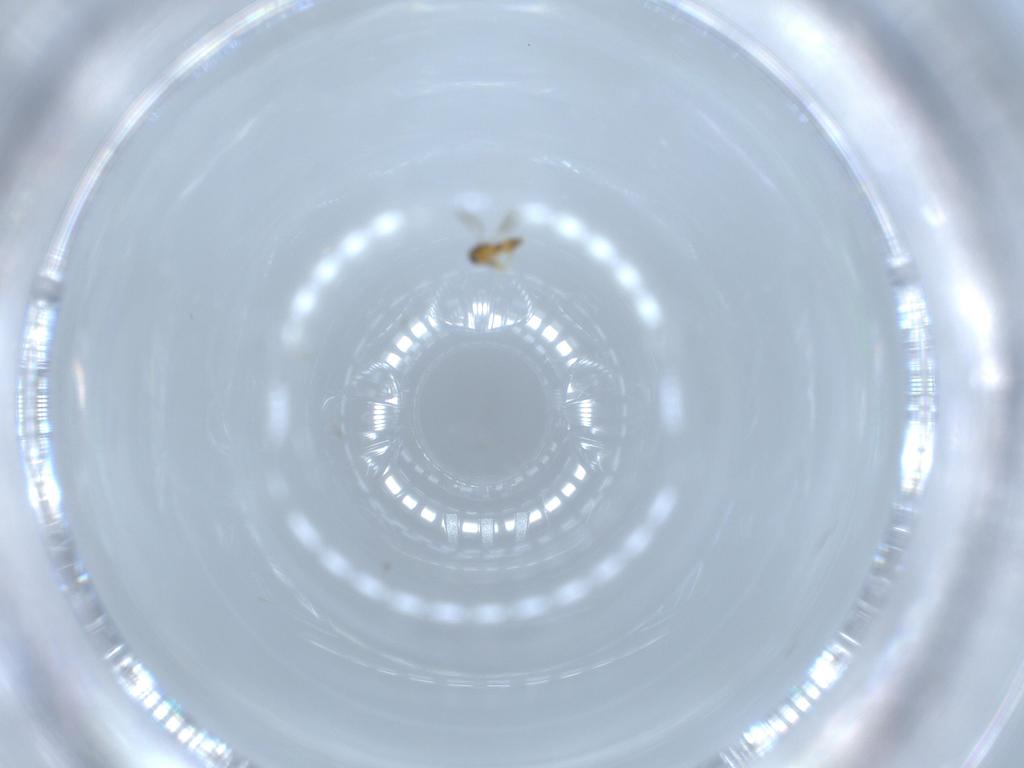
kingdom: Animalia
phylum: Arthropoda
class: Insecta
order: Hymenoptera
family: Platygastridae
